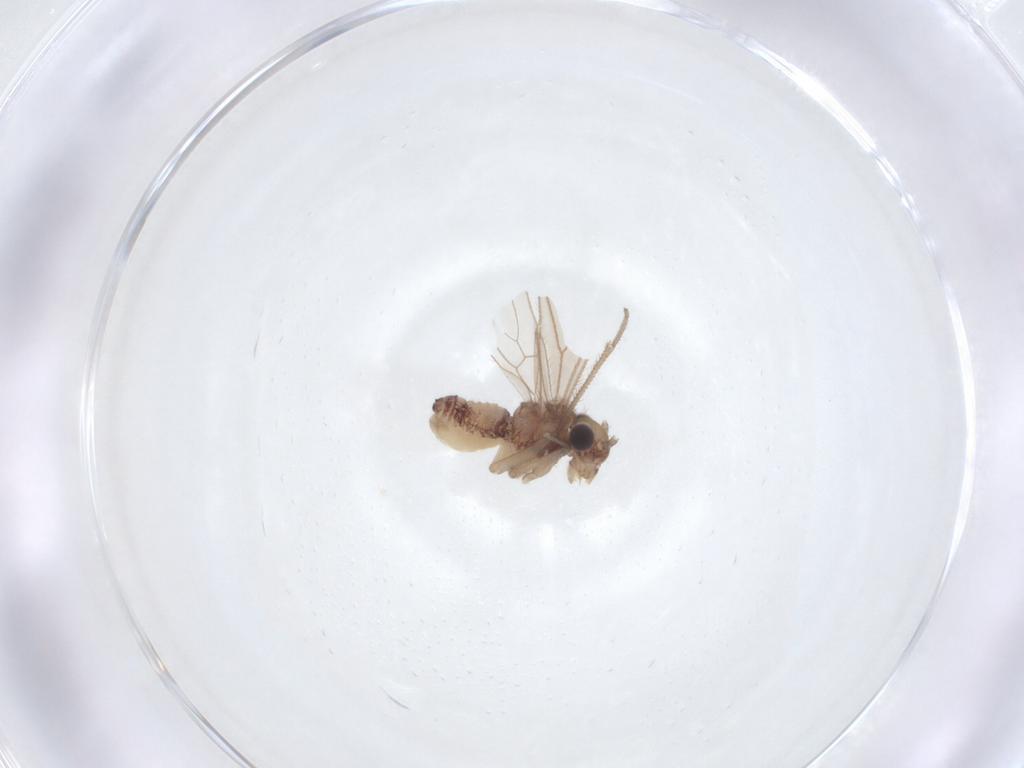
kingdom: Animalia
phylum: Arthropoda
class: Insecta
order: Psocodea
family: Cladiopsocidae
